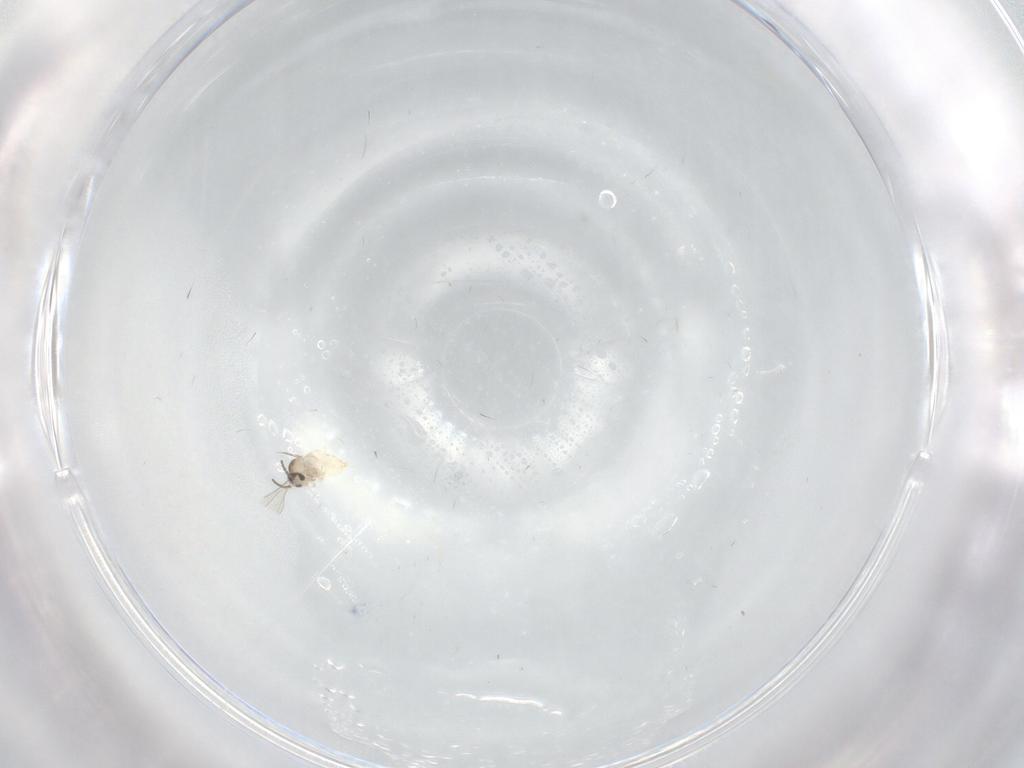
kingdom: Animalia
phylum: Arthropoda
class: Insecta
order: Diptera
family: Cecidomyiidae
